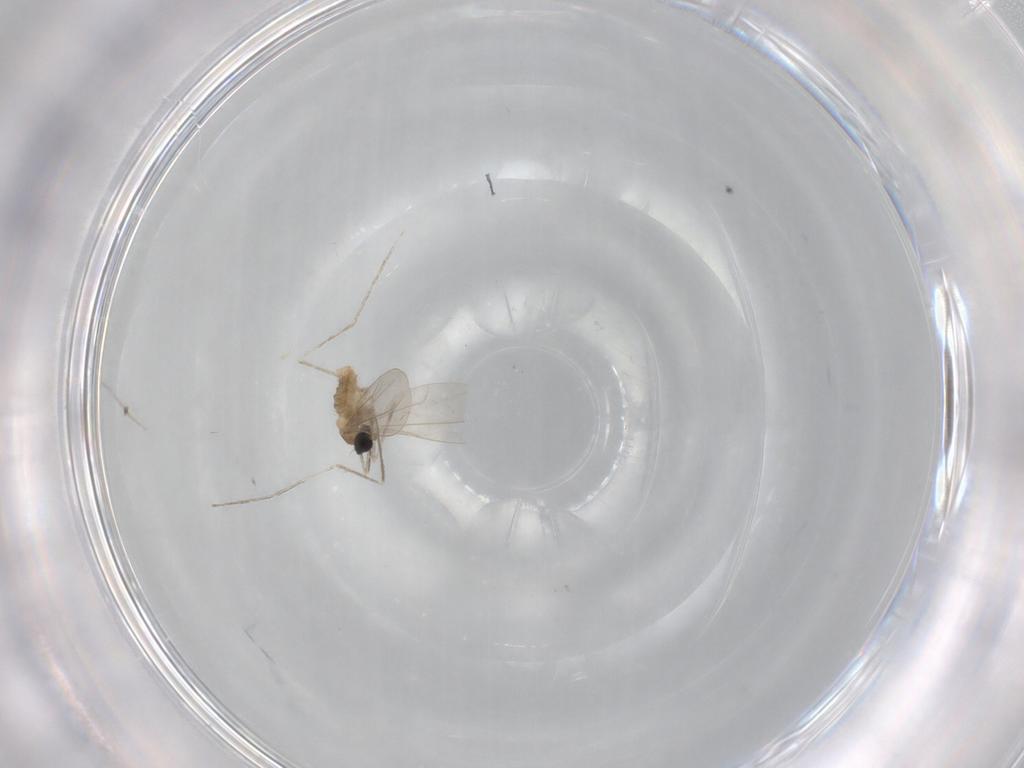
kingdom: Animalia
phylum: Arthropoda
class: Insecta
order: Diptera
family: Cecidomyiidae
